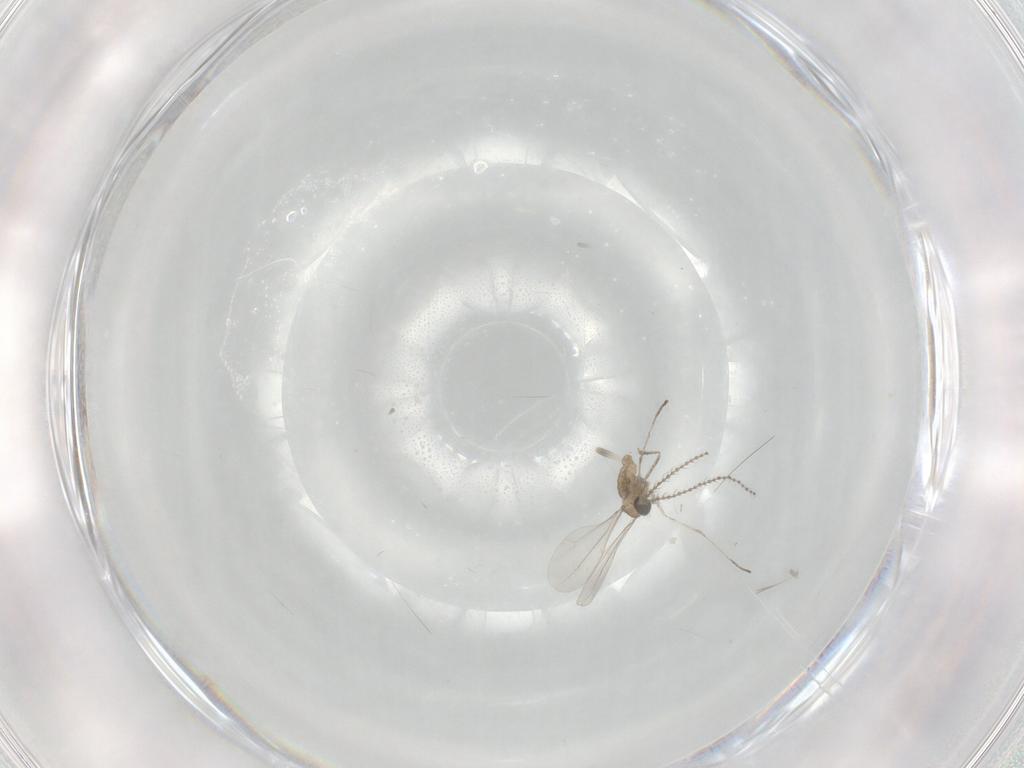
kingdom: Animalia
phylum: Arthropoda
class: Insecta
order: Diptera
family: Cecidomyiidae
